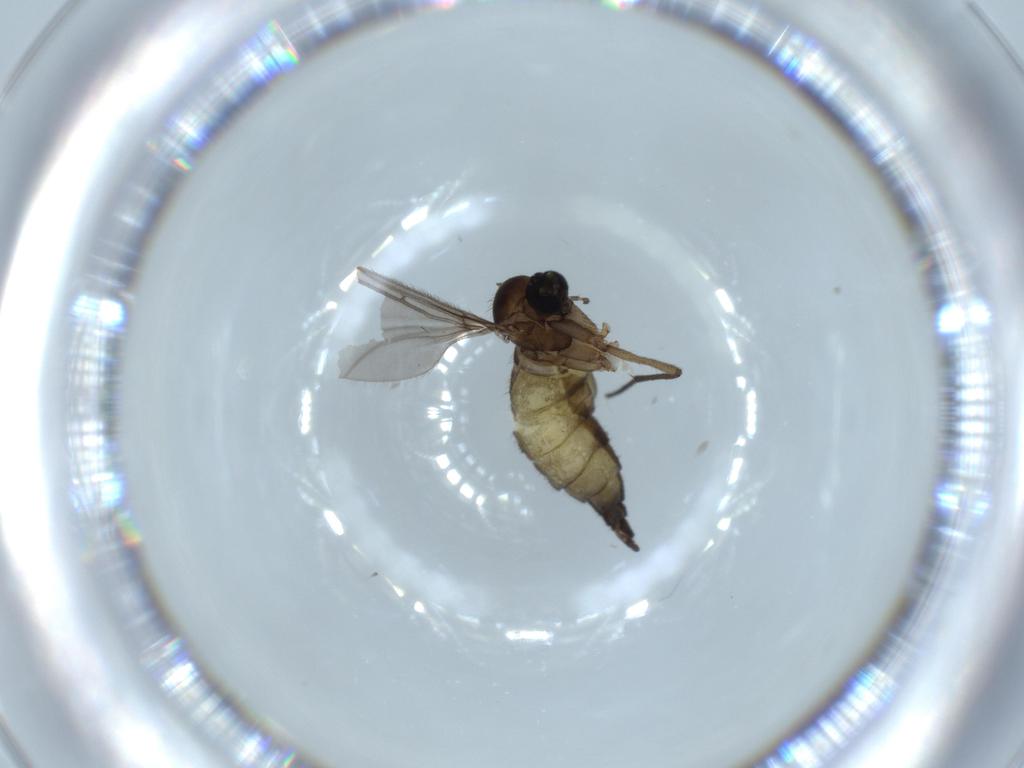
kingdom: Animalia
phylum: Arthropoda
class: Insecta
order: Diptera
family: Sciaridae
